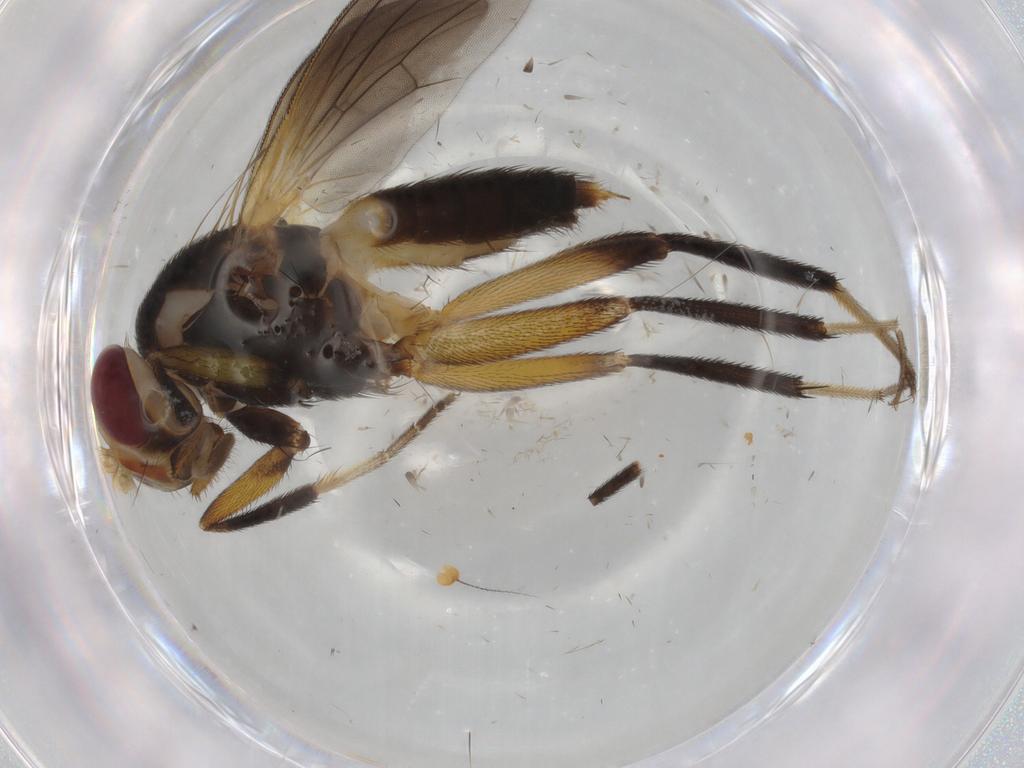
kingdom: Animalia
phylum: Arthropoda
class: Insecta
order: Diptera
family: Clusiidae
